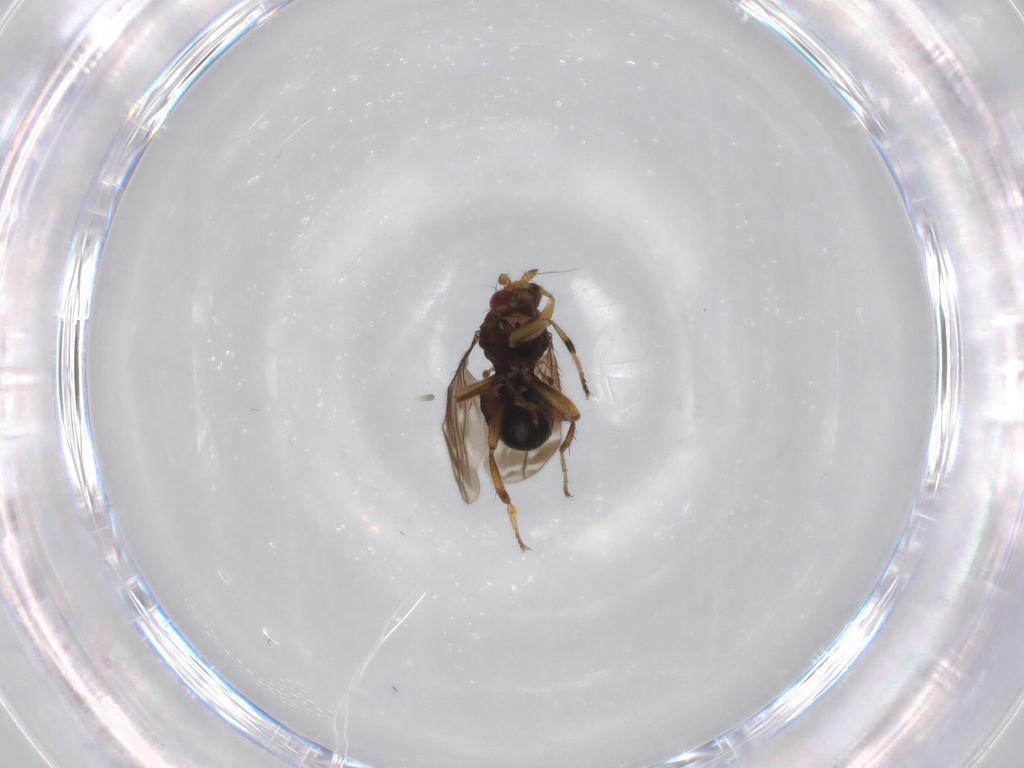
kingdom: Animalia
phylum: Arthropoda
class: Insecta
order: Diptera
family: Sphaeroceridae
